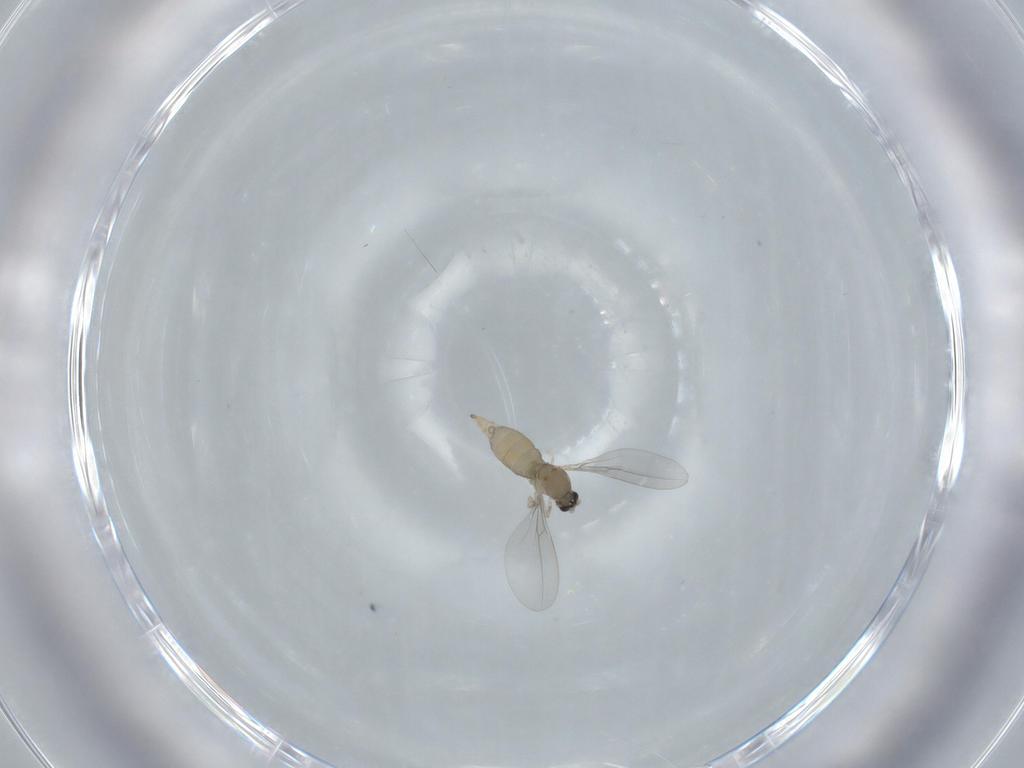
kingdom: Animalia
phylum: Arthropoda
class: Insecta
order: Diptera
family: Cecidomyiidae
